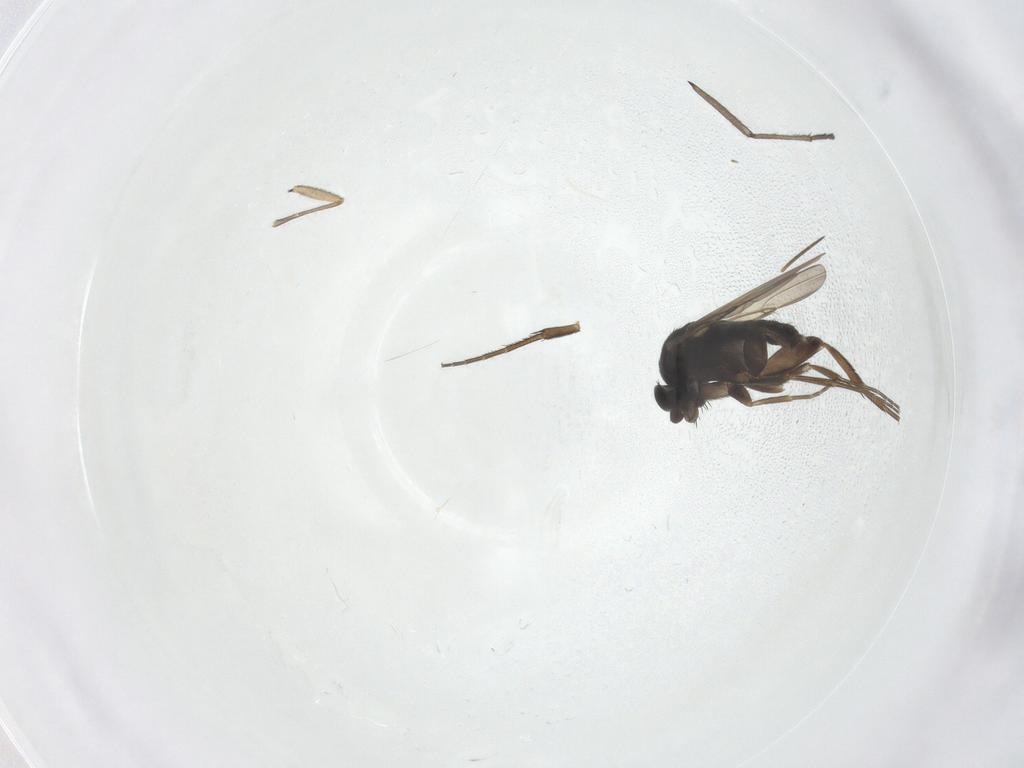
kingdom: Animalia
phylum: Arthropoda
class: Insecta
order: Diptera
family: Phoridae
